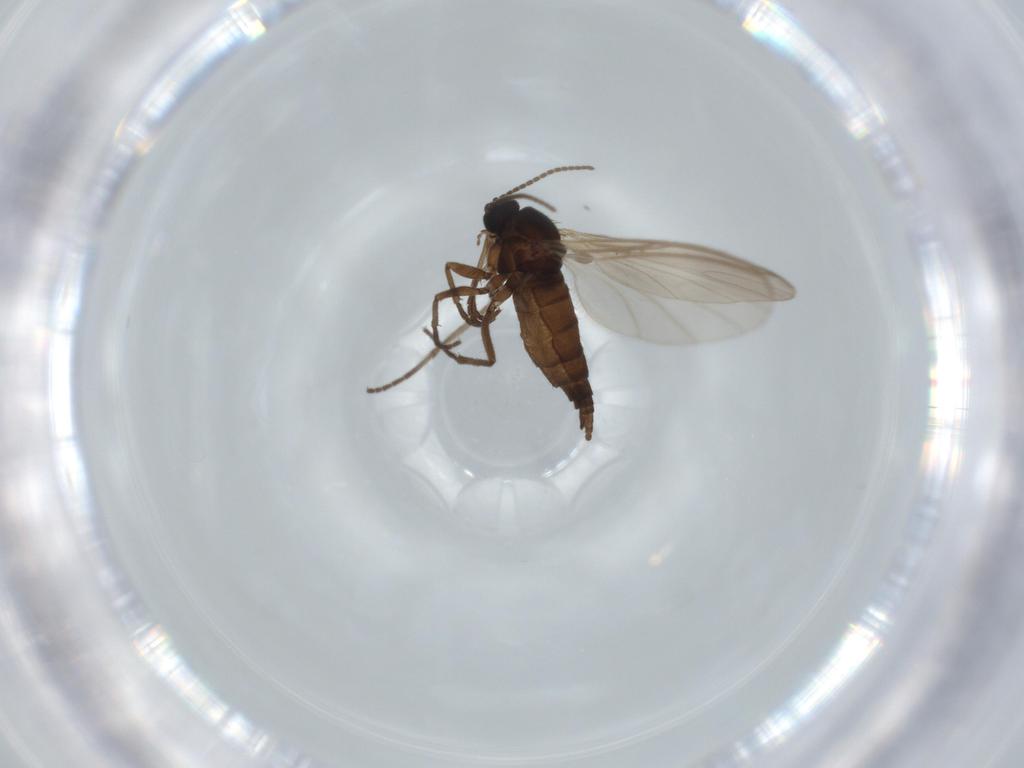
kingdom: Animalia
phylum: Arthropoda
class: Insecta
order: Diptera
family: Sciaridae
